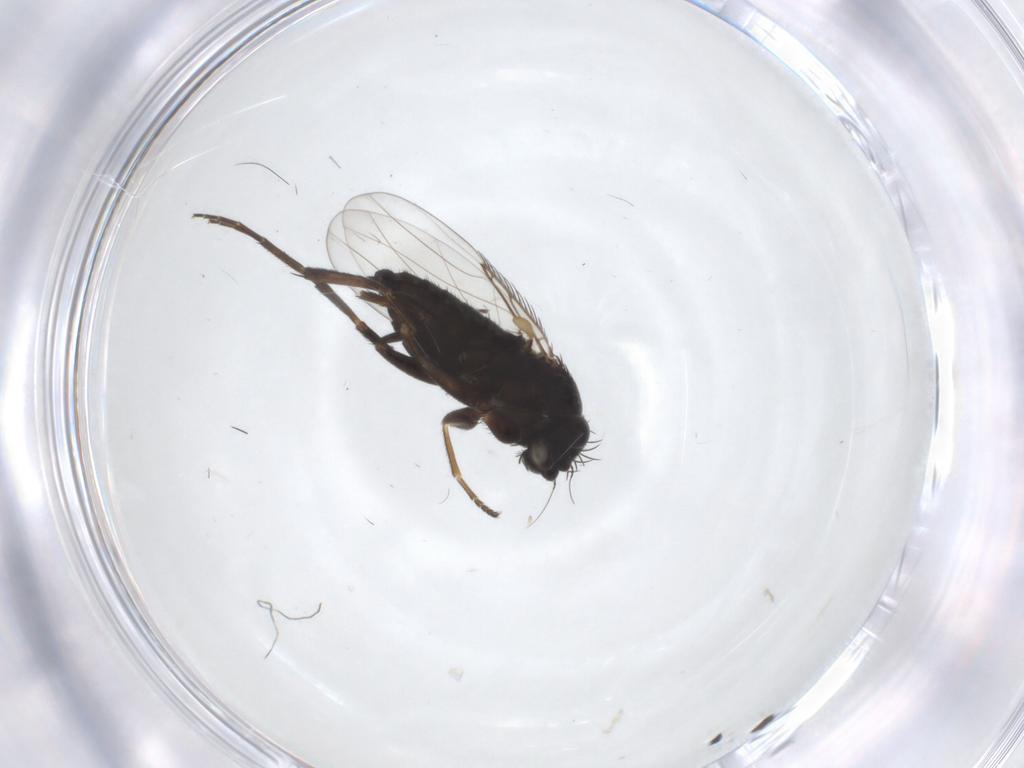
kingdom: Animalia
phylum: Arthropoda
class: Insecta
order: Diptera
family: Phoridae
